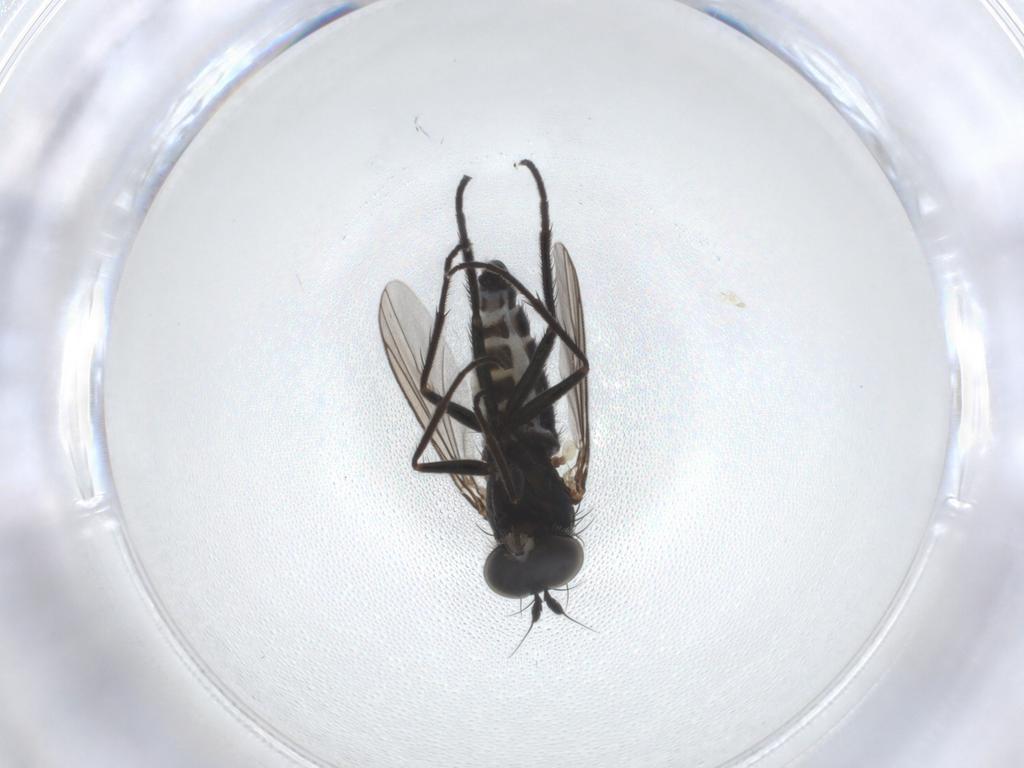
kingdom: Animalia
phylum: Arthropoda
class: Insecta
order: Diptera
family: Dolichopodidae
